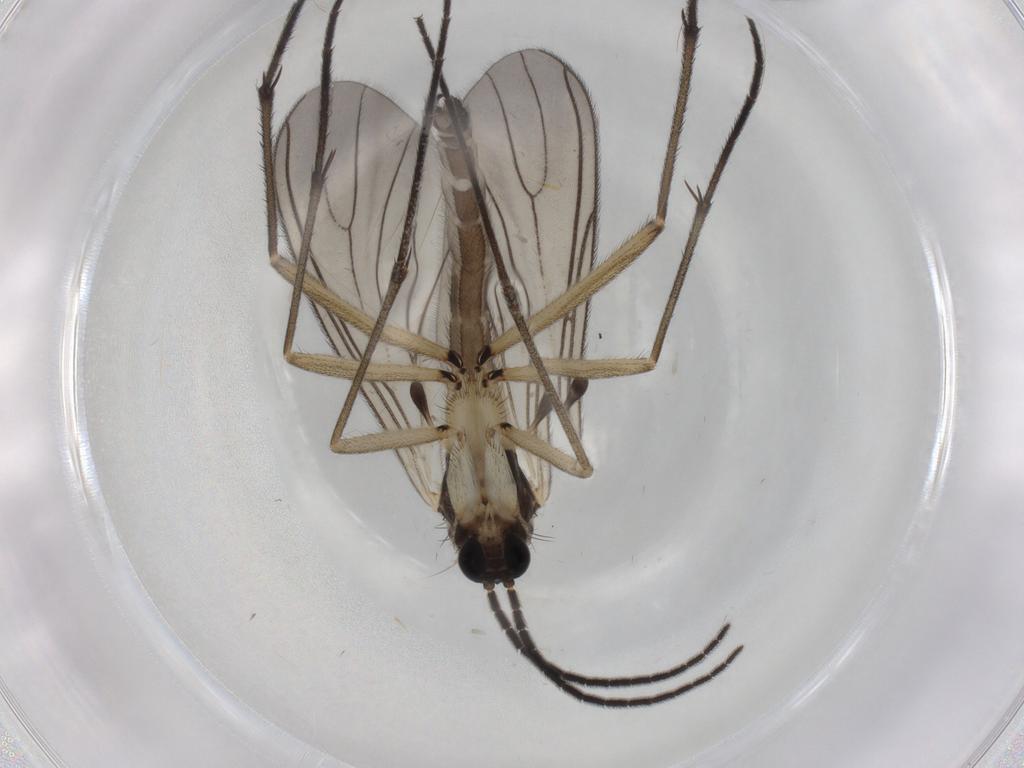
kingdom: Animalia
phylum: Arthropoda
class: Insecta
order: Diptera
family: Sciaridae
